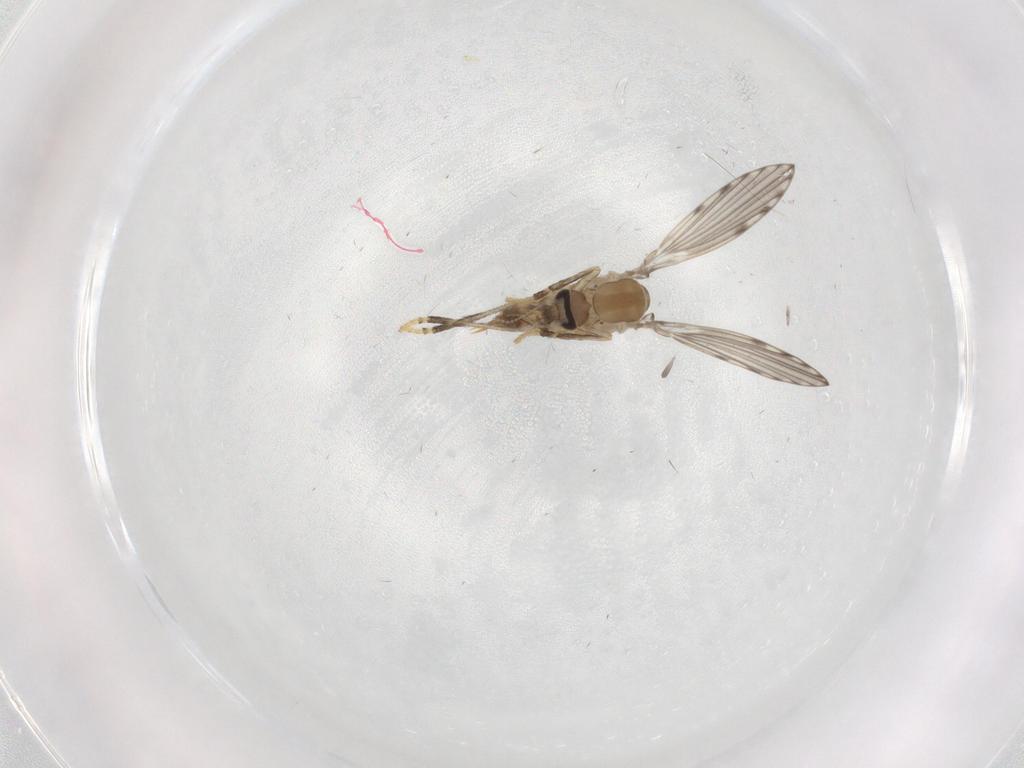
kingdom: Animalia
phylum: Arthropoda
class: Insecta
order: Diptera
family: Psychodidae
